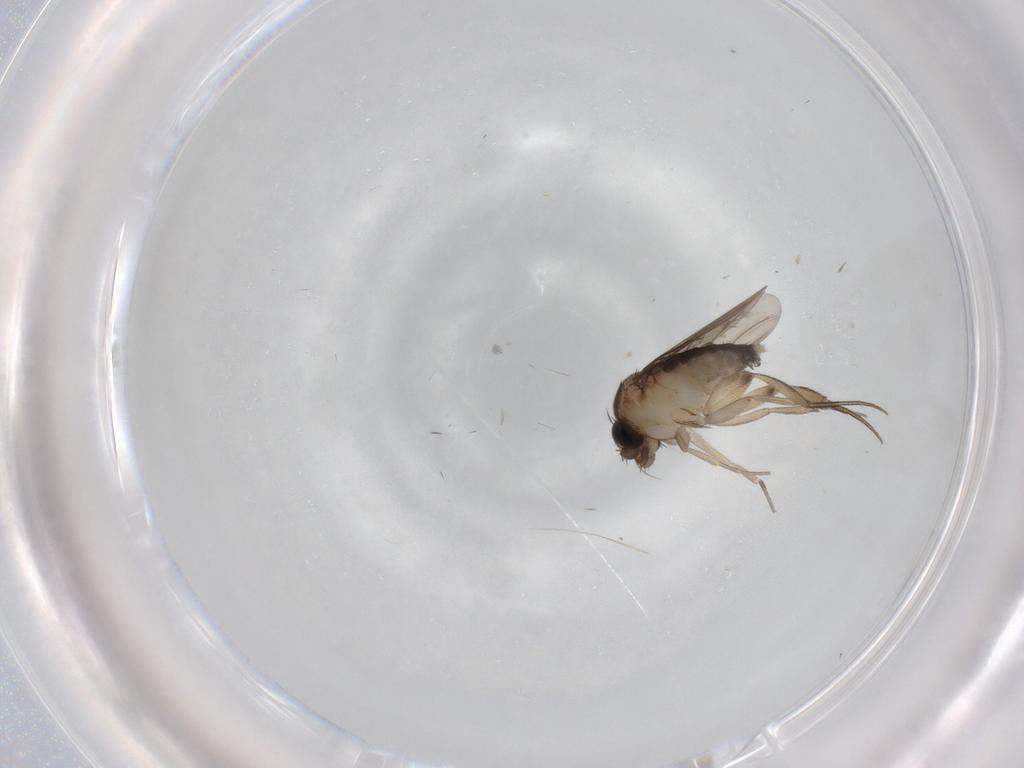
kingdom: Animalia
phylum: Arthropoda
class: Insecta
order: Diptera
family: Phoridae
